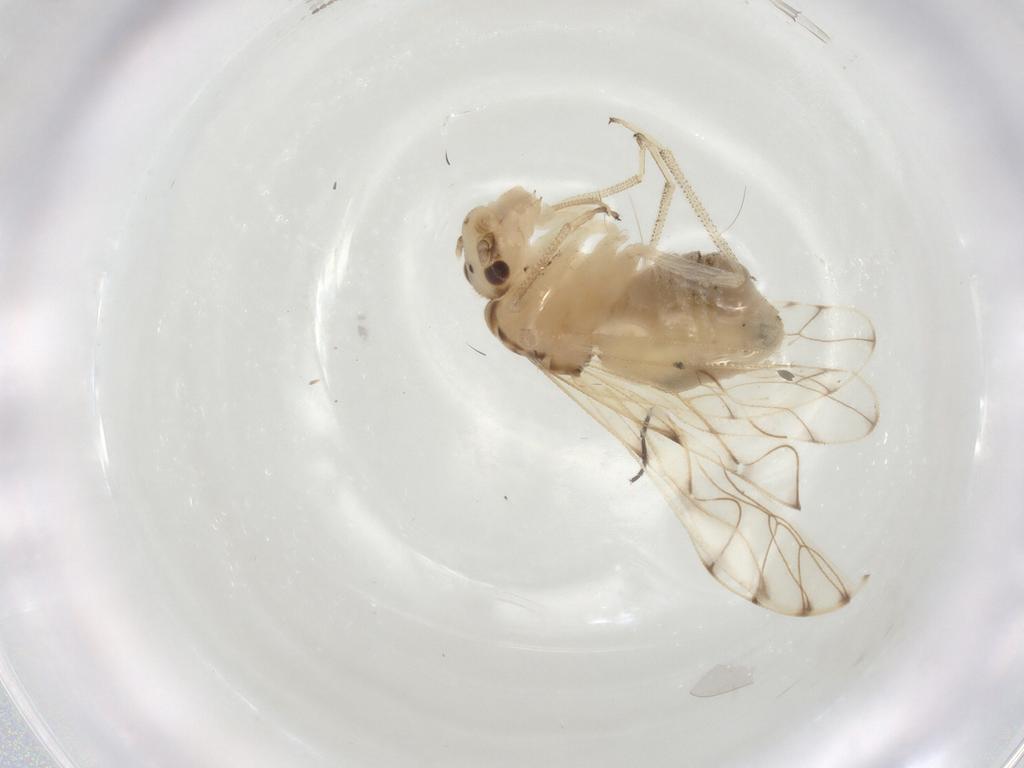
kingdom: Animalia
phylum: Arthropoda
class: Insecta
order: Psocodea
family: Philotarsidae
